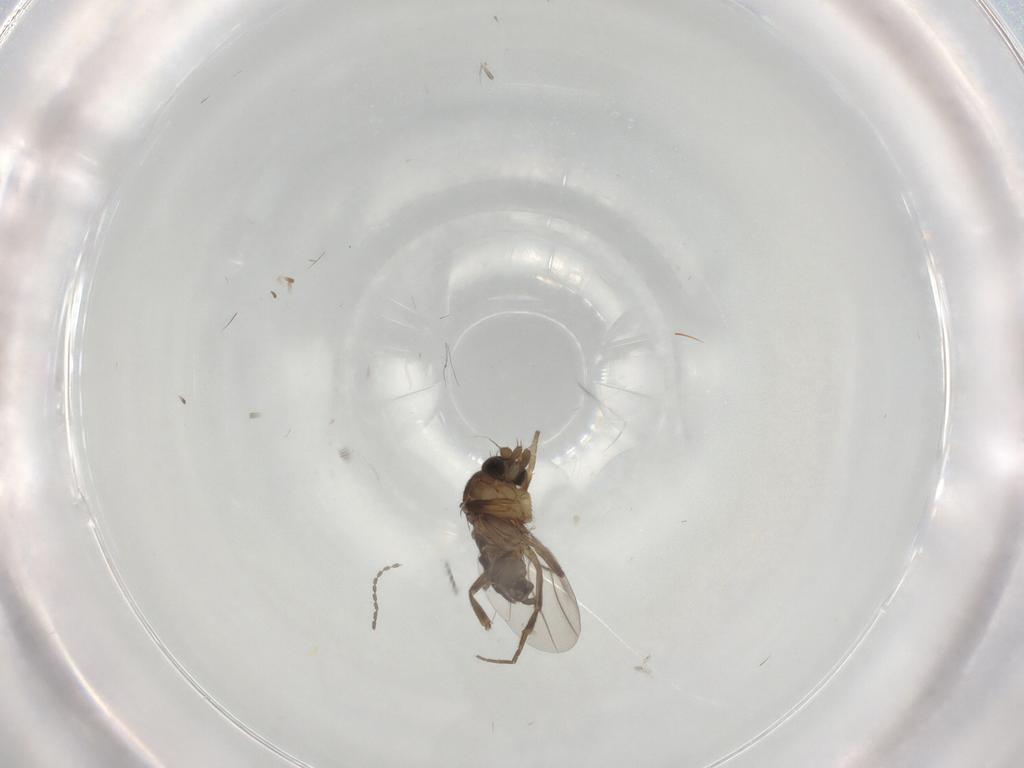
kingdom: Animalia
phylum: Arthropoda
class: Insecta
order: Diptera
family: Phoridae
